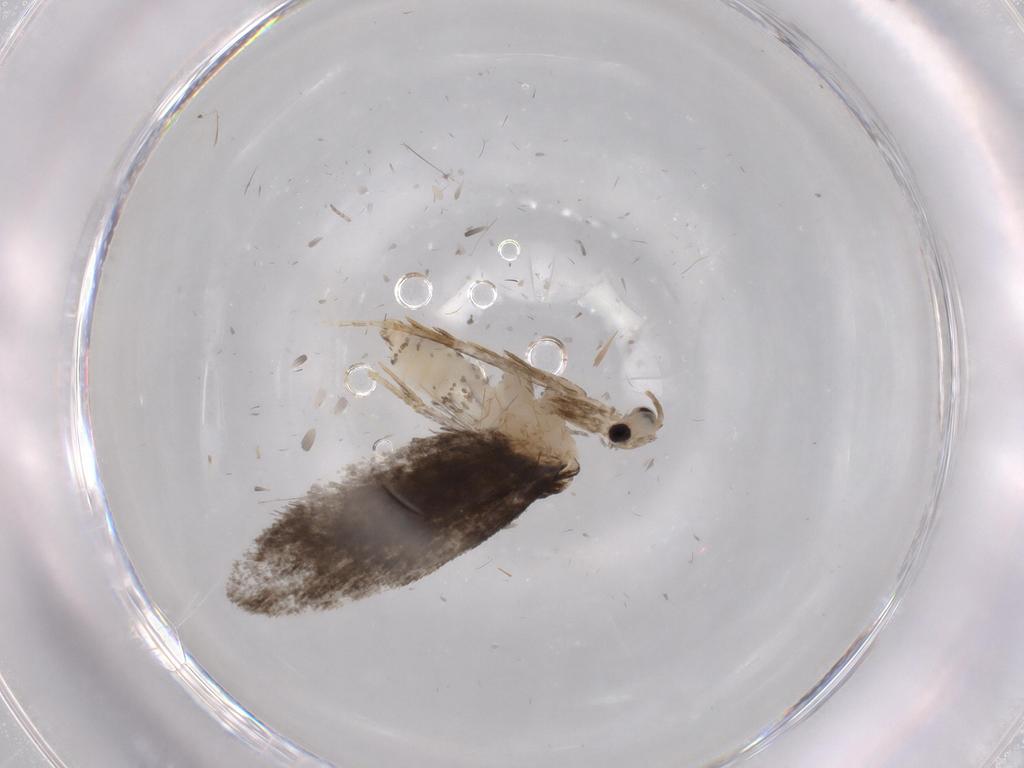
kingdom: Animalia
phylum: Arthropoda
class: Insecta
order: Lepidoptera
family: Psychidae
